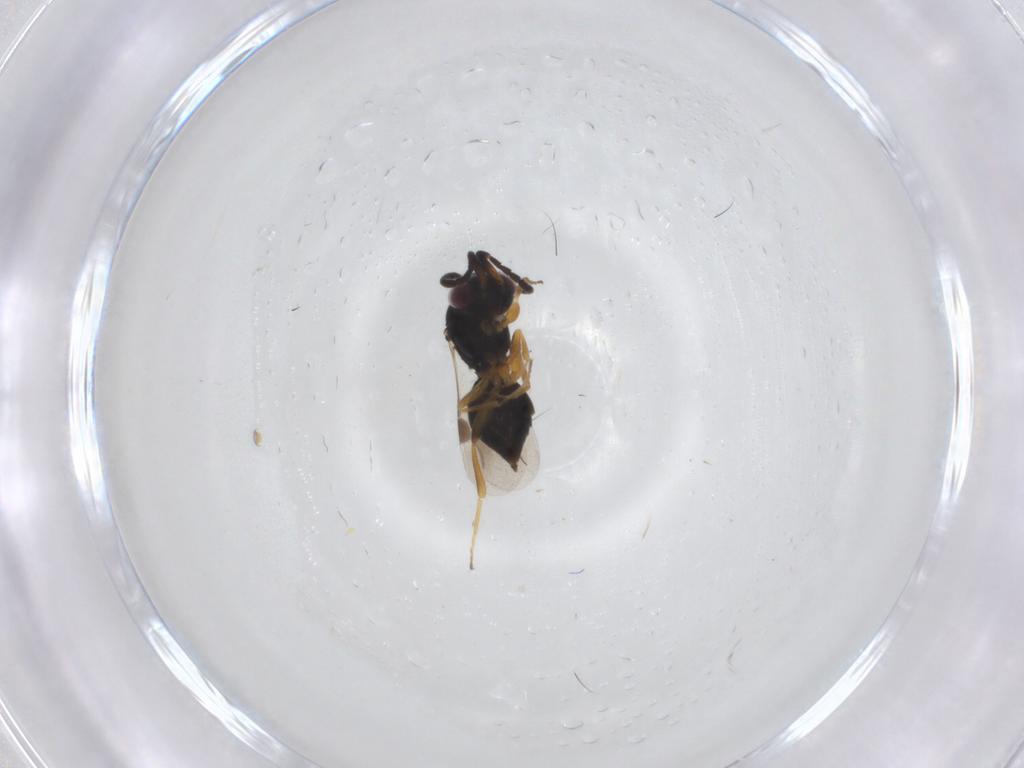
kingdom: Animalia
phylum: Arthropoda
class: Insecta
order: Hymenoptera
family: Megaspilidae
